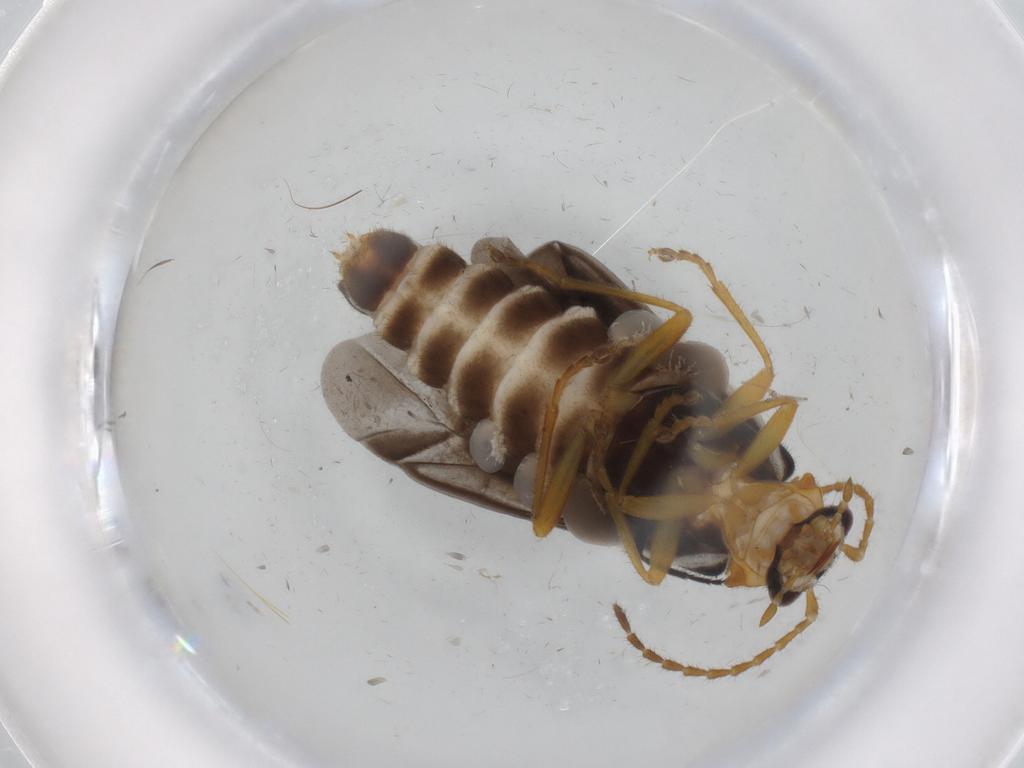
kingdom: Animalia
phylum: Arthropoda
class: Insecta
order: Coleoptera
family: Cantharidae
